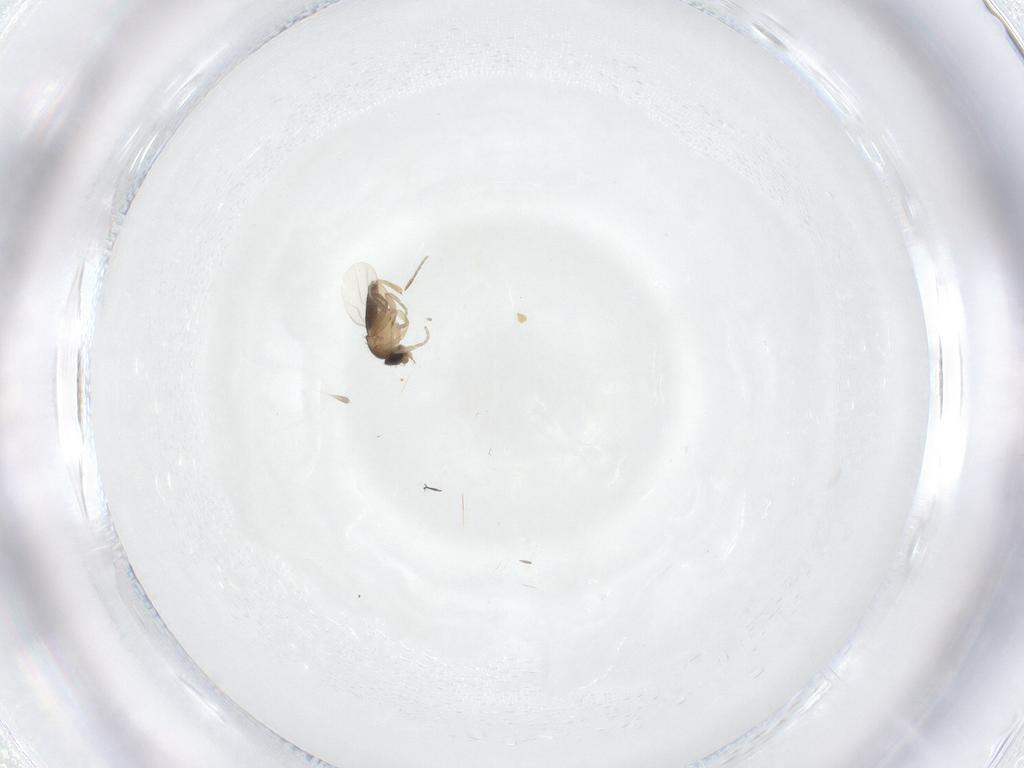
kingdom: Animalia
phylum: Arthropoda
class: Insecta
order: Diptera
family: Phoridae
